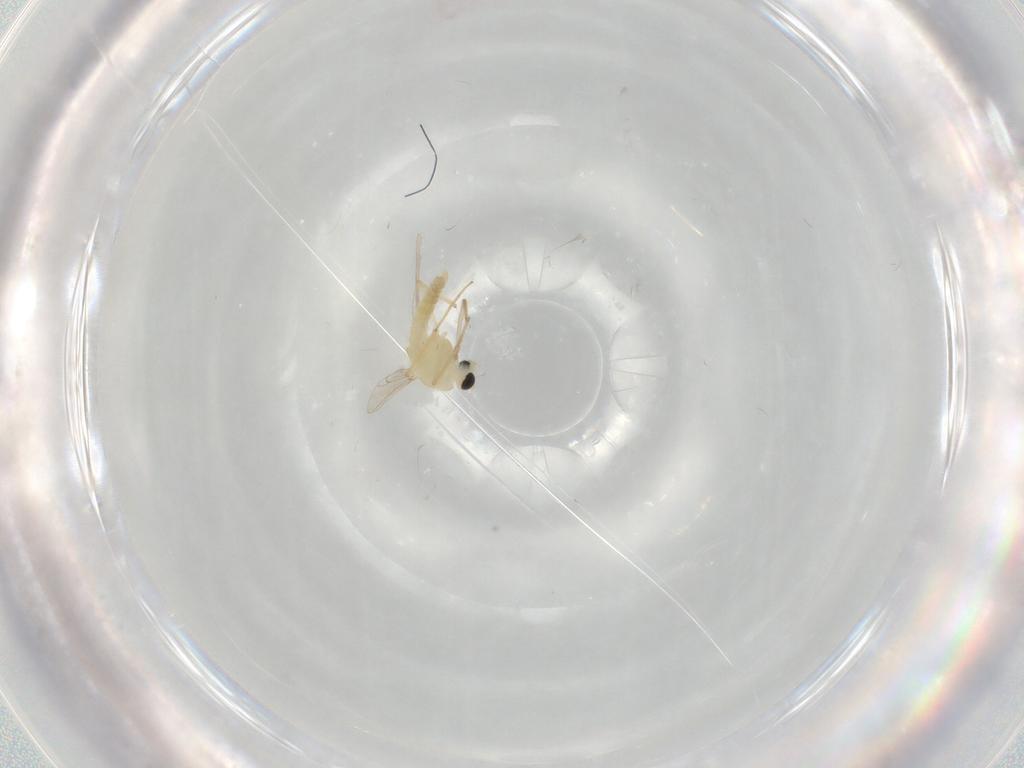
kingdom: Animalia
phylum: Arthropoda
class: Insecta
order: Diptera
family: Chironomidae
